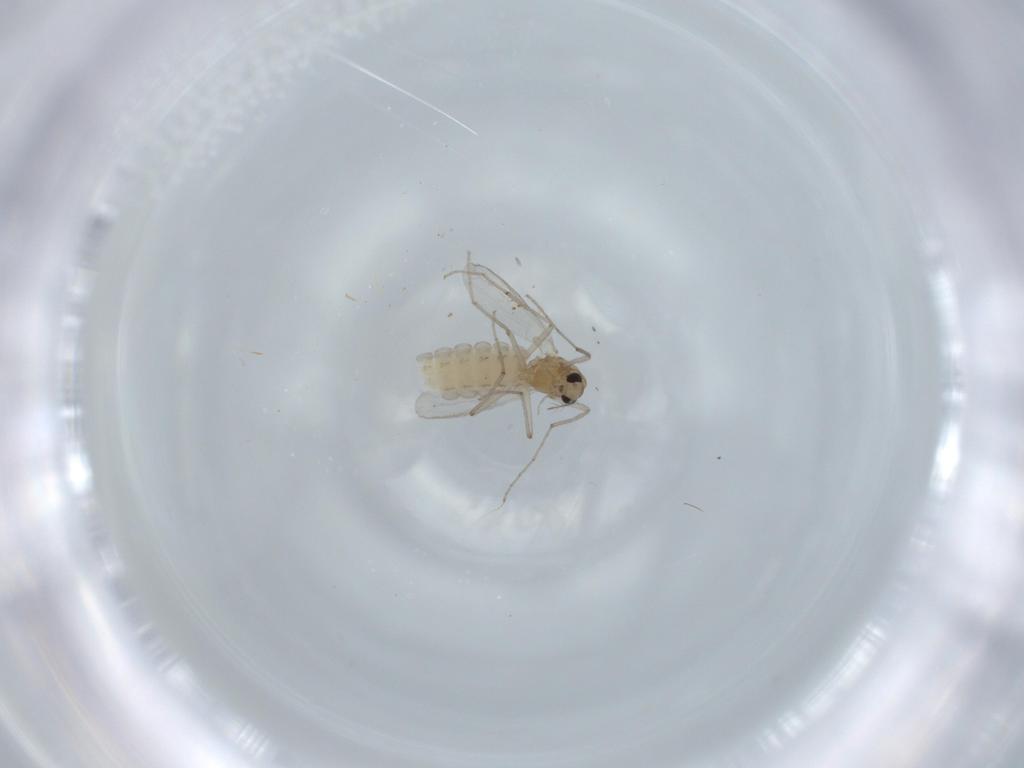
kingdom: Animalia
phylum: Arthropoda
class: Insecta
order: Diptera
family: Chironomidae
